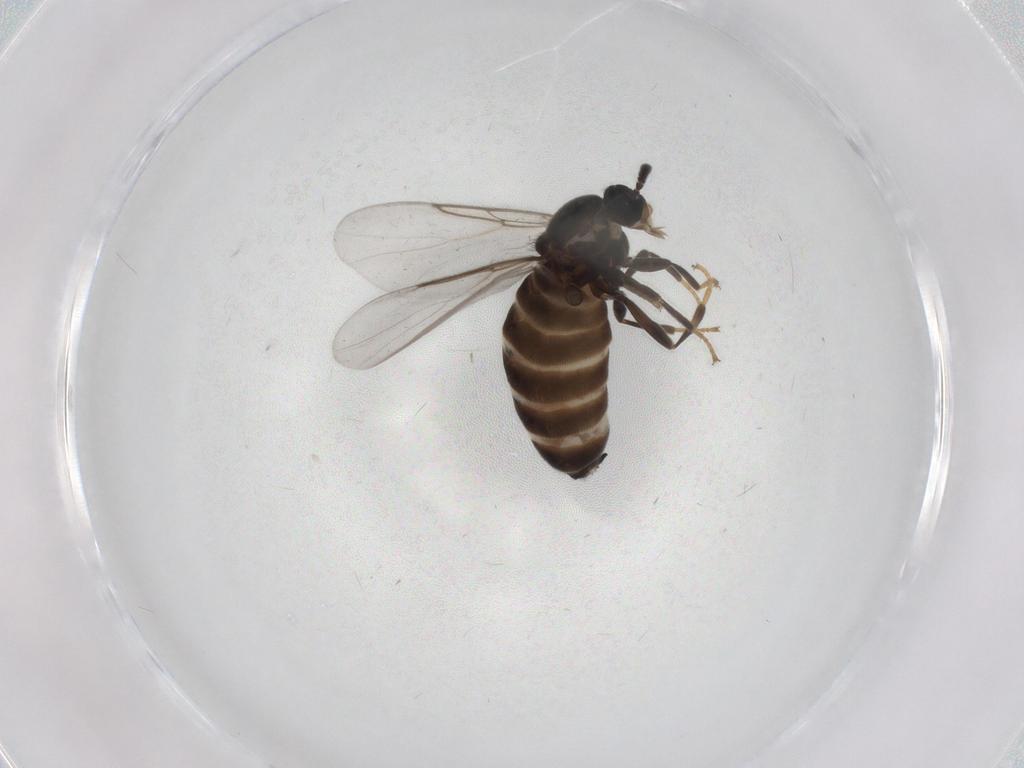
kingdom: Animalia
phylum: Arthropoda
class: Insecta
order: Diptera
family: Scatopsidae
